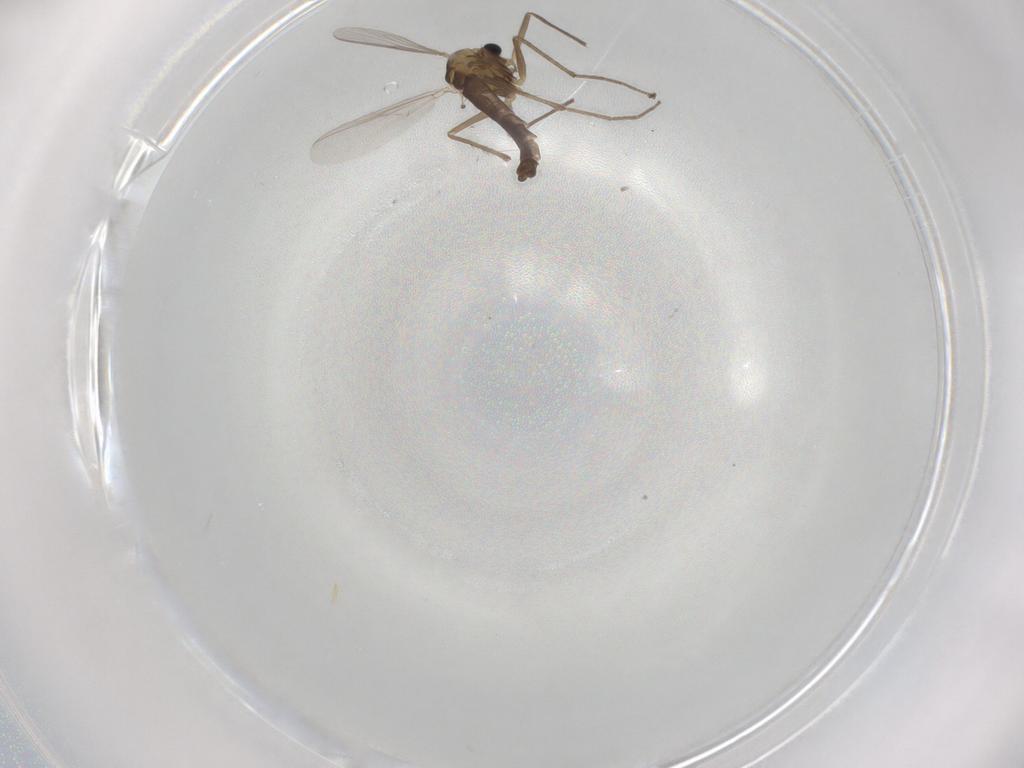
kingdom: Animalia
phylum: Arthropoda
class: Insecta
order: Diptera
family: Chironomidae
